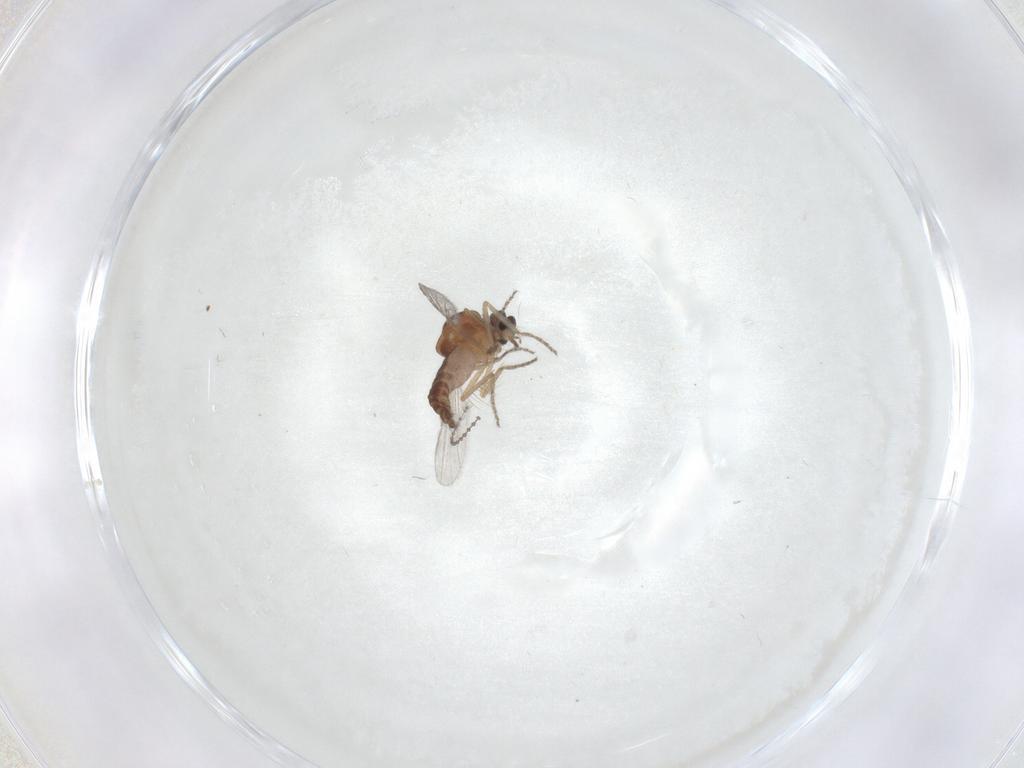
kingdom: Animalia
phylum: Arthropoda
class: Insecta
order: Diptera
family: Ceratopogonidae
